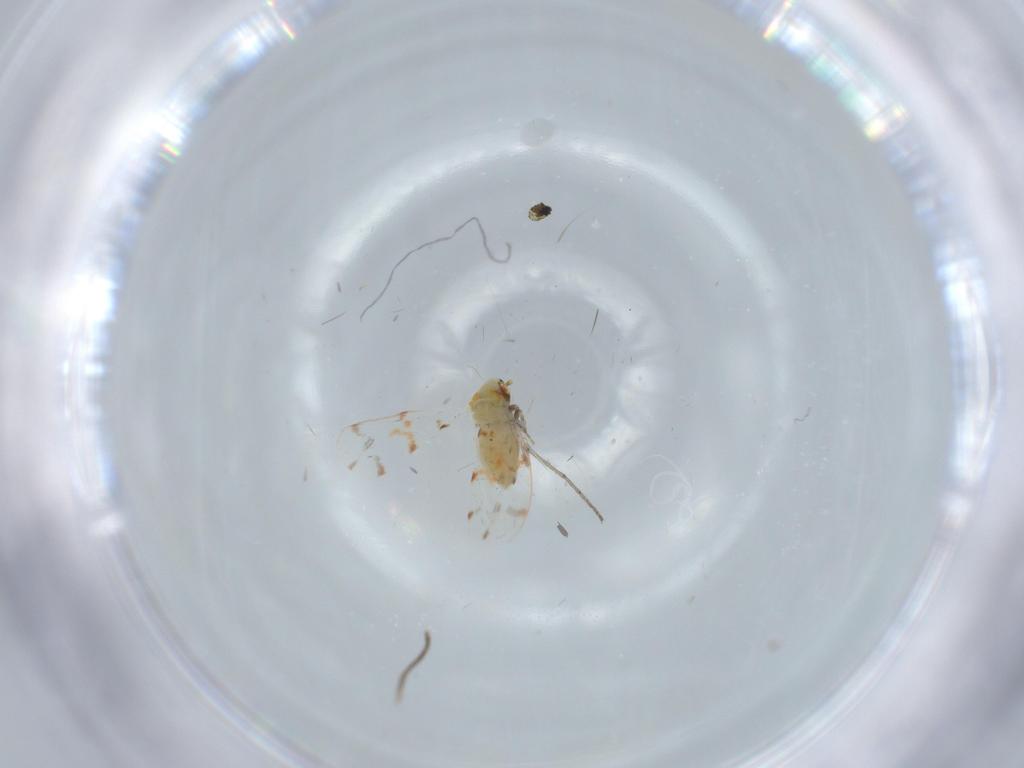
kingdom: Animalia
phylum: Arthropoda
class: Insecta
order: Hemiptera
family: Aleyrodidae
